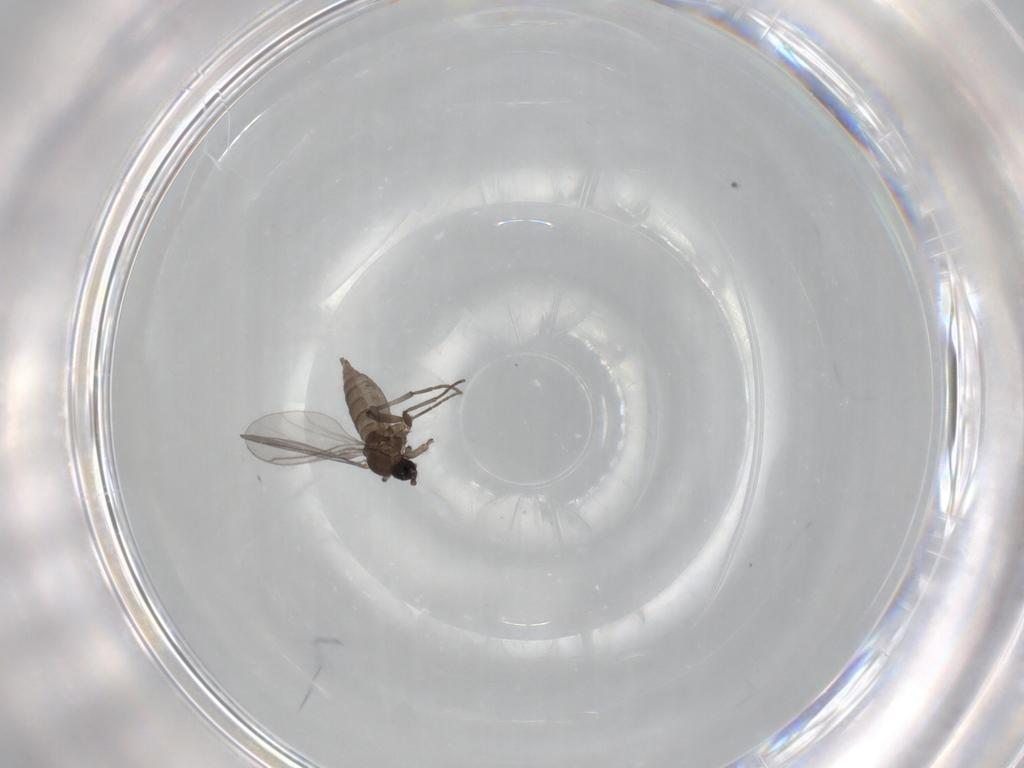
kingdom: Animalia
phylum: Arthropoda
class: Insecta
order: Diptera
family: Sciaridae
